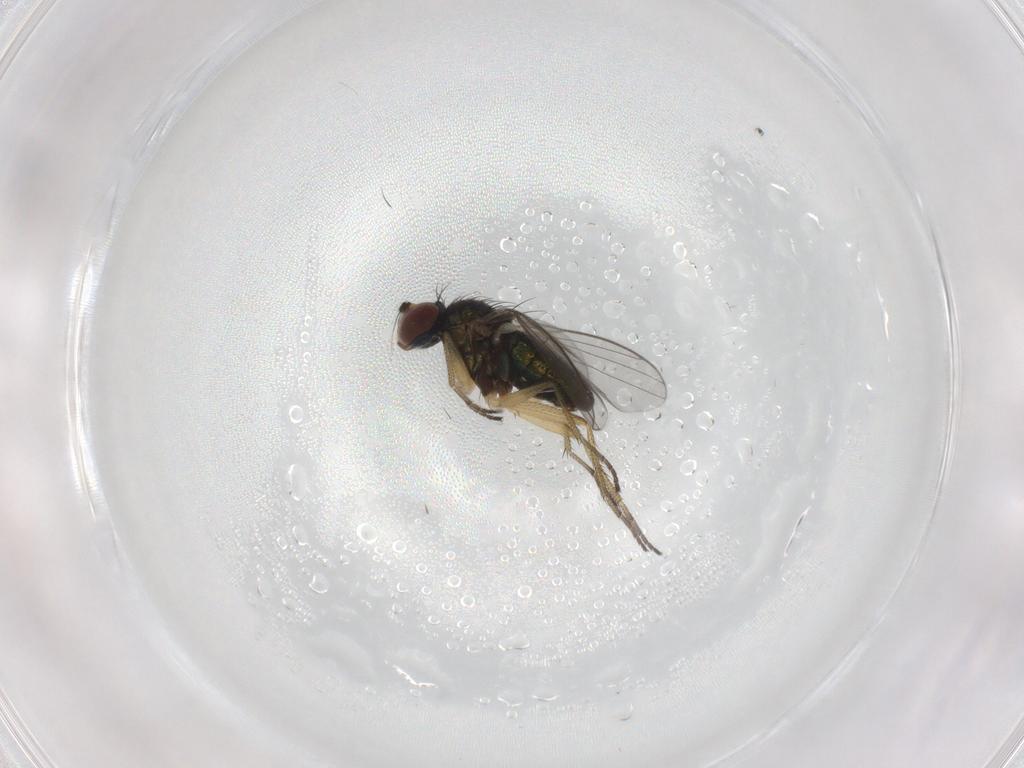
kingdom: Animalia
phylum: Arthropoda
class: Insecta
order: Diptera
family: Dolichopodidae
